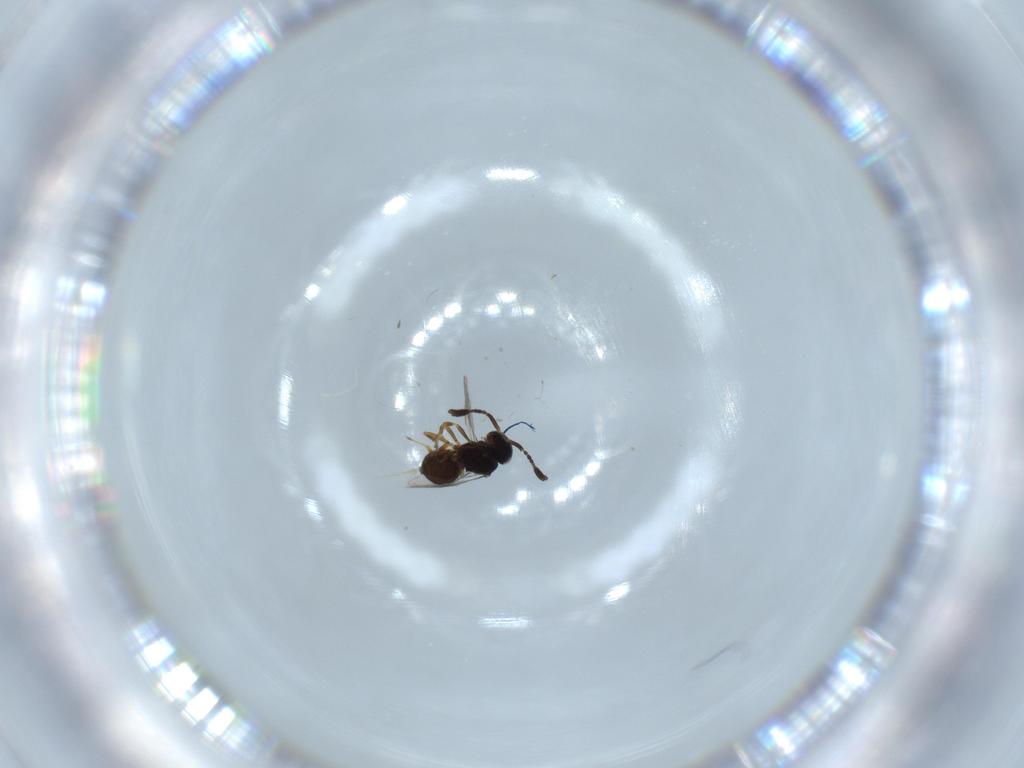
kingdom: Animalia
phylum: Arthropoda
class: Insecta
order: Hymenoptera
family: Scelionidae
